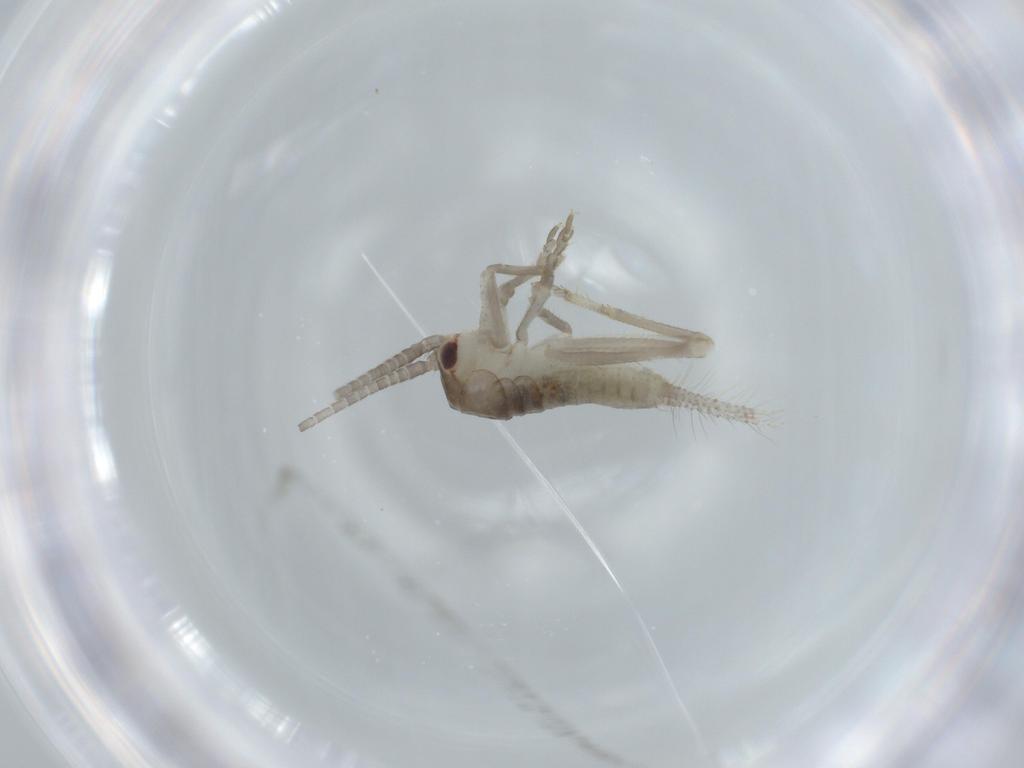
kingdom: Animalia
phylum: Arthropoda
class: Insecta
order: Orthoptera
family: Gryllidae
